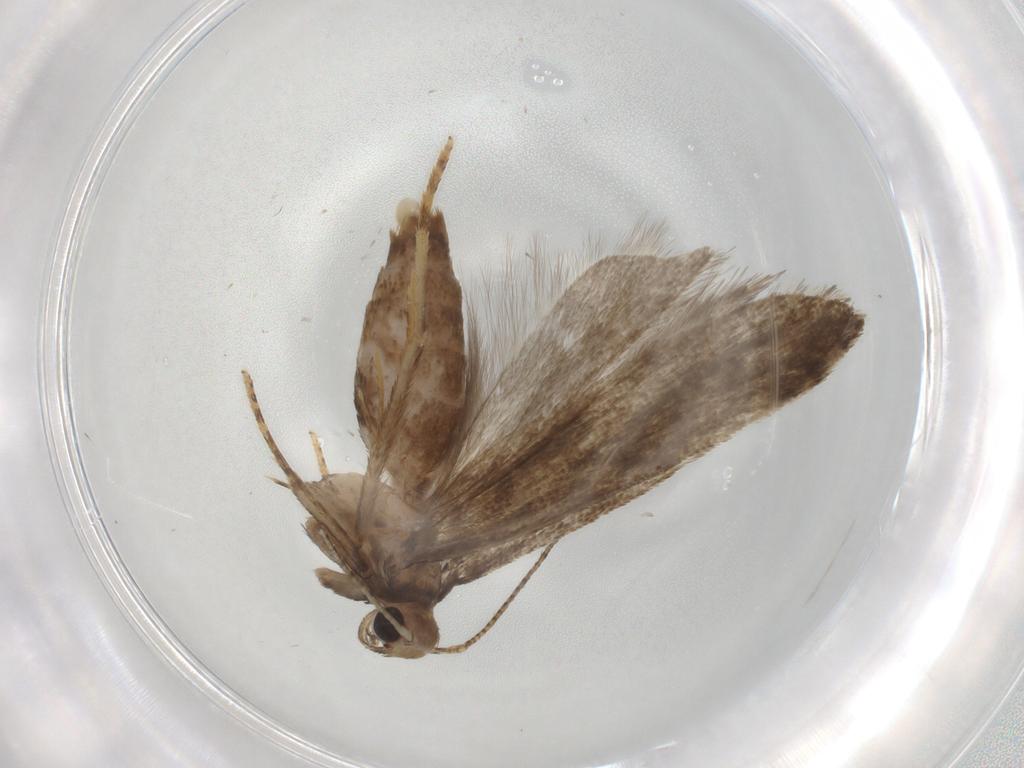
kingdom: Animalia
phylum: Arthropoda
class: Insecta
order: Lepidoptera
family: Gelechiidae
